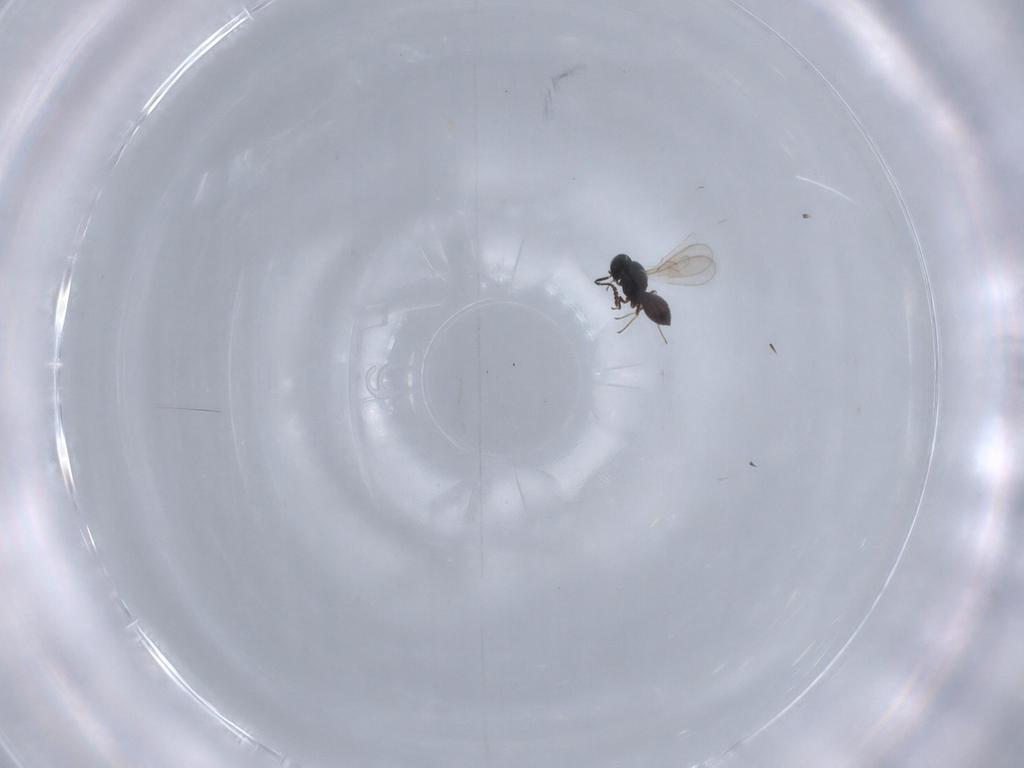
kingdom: Animalia
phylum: Arthropoda
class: Insecta
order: Hymenoptera
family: Scelionidae
